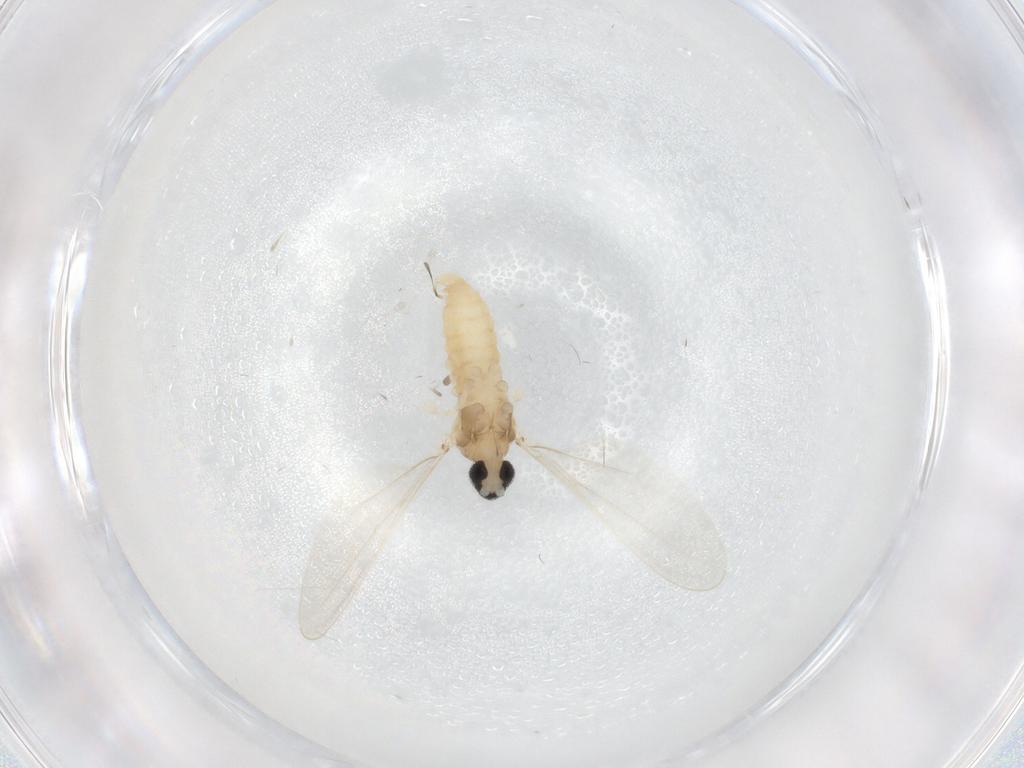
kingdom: Animalia
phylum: Arthropoda
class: Insecta
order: Diptera
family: Cecidomyiidae
